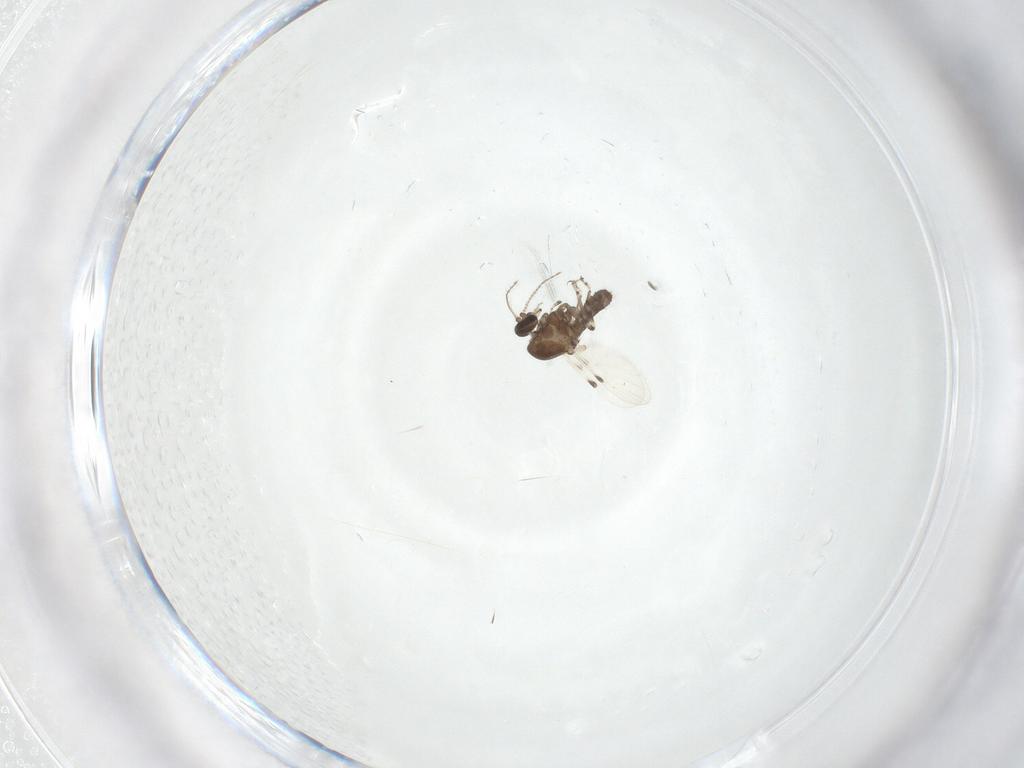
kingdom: Animalia
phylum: Arthropoda
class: Insecta
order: Diptera
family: Ceratopogonidae
